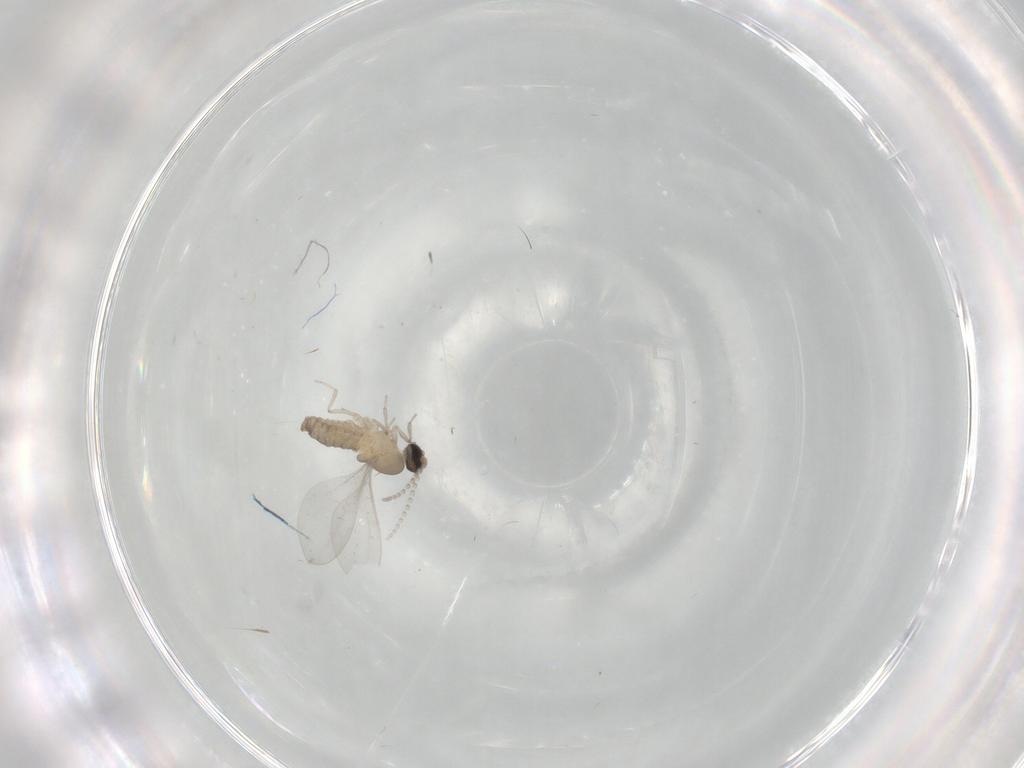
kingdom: Animalia
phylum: Arthropoda
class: Insecta
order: Diptera
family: Cecidomyiidae
